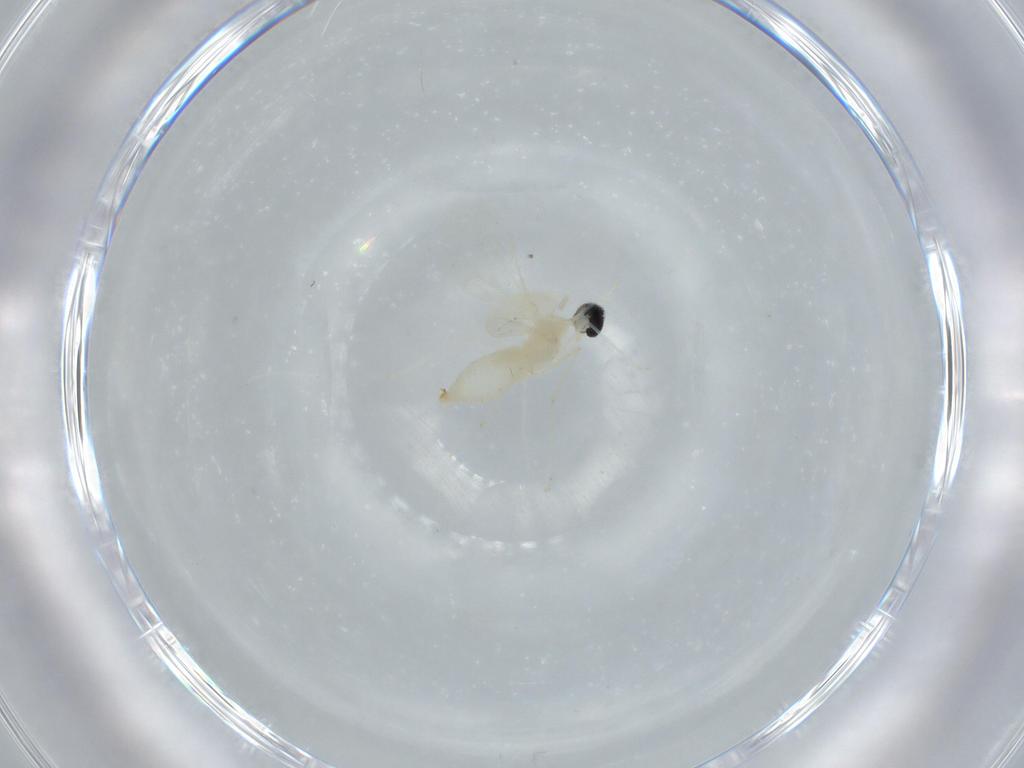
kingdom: Animalia
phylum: Arthropoda
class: Insecta
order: Diptera
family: Cecidomyiidae
